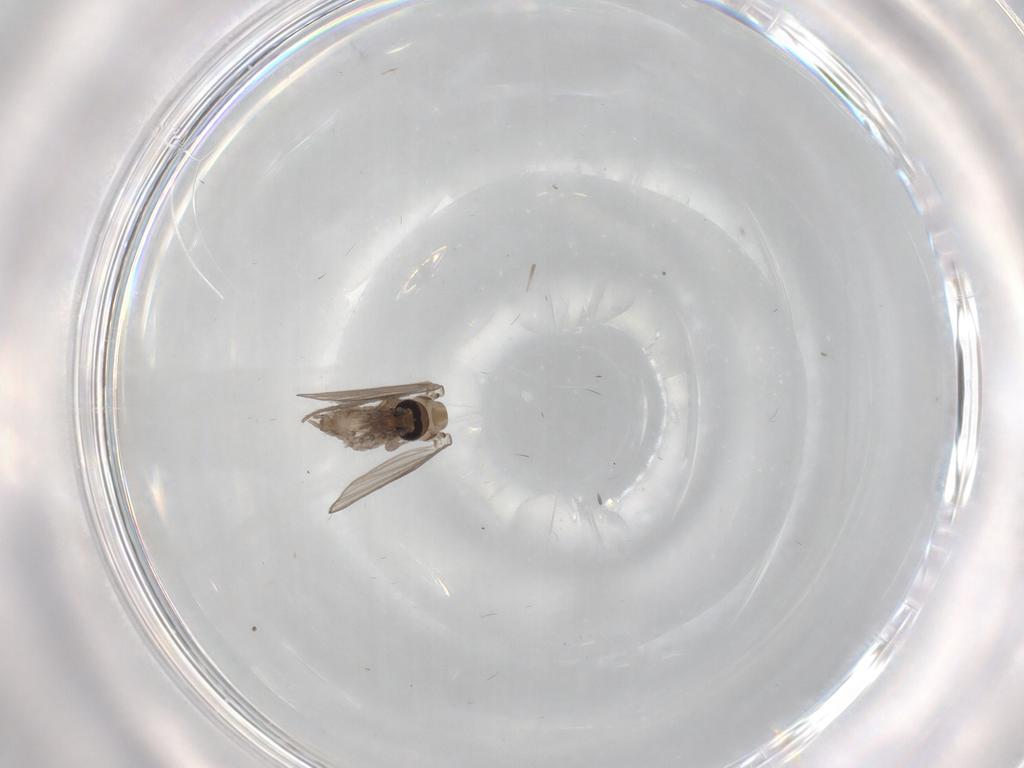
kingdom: Animalia
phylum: Arthropoda
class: Insecta
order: Diptera
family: Psychodidae
